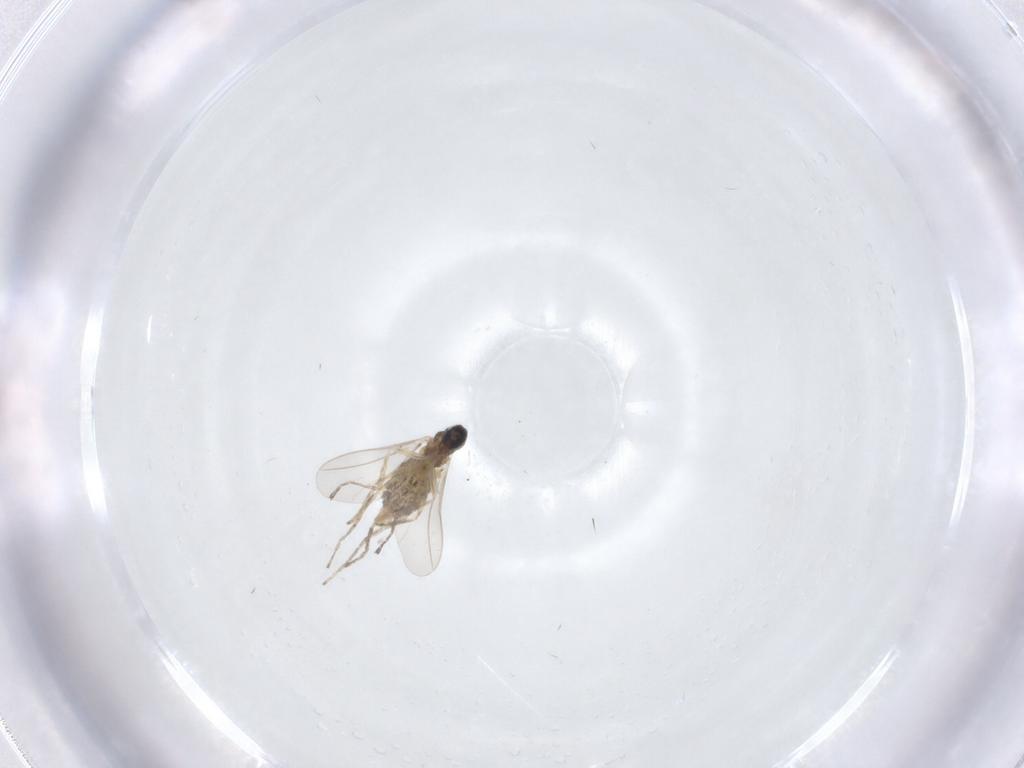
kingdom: Animalia
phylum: Arthropoda
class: Insecta
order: Diptera
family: Cecidomyiidae
